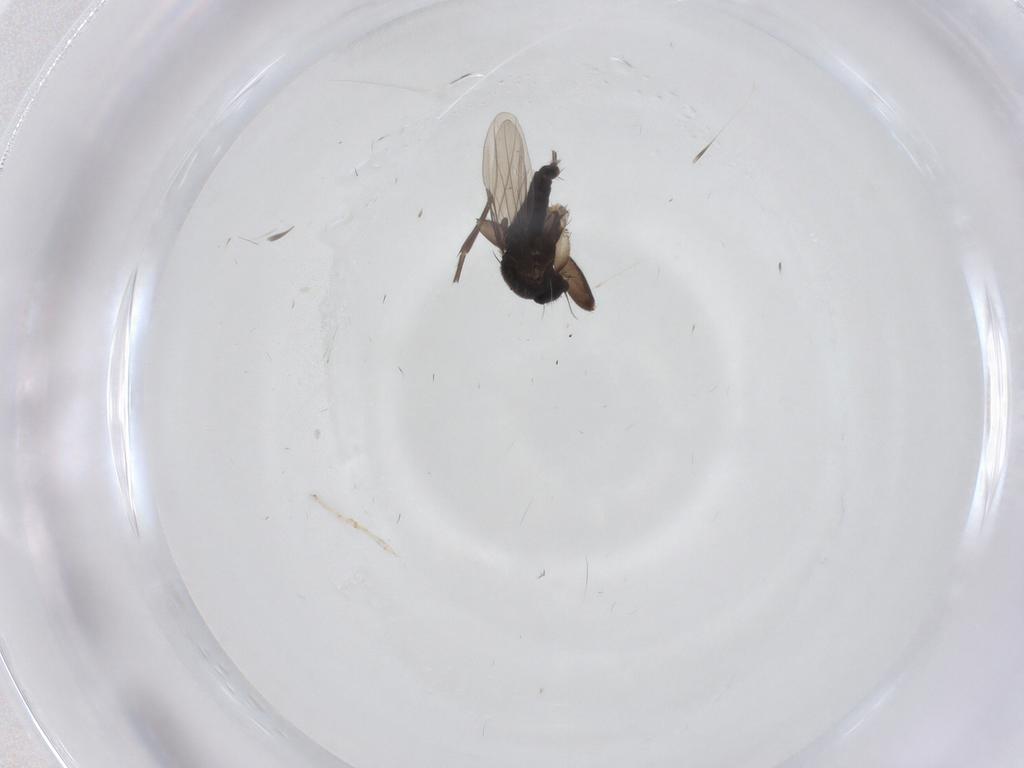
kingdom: Animalia
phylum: Arthropoda
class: Insecta
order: Diptera
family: Phoridae
